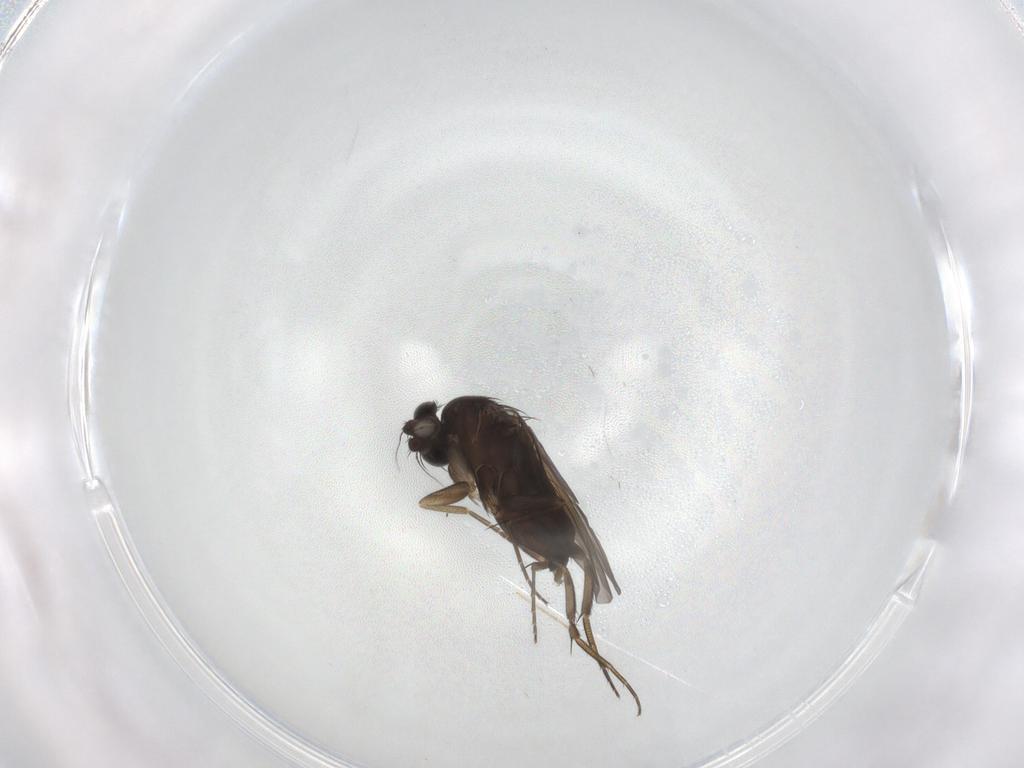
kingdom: Animalia
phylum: Arthropoda
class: Insecta
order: Diptera
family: Phoridae
